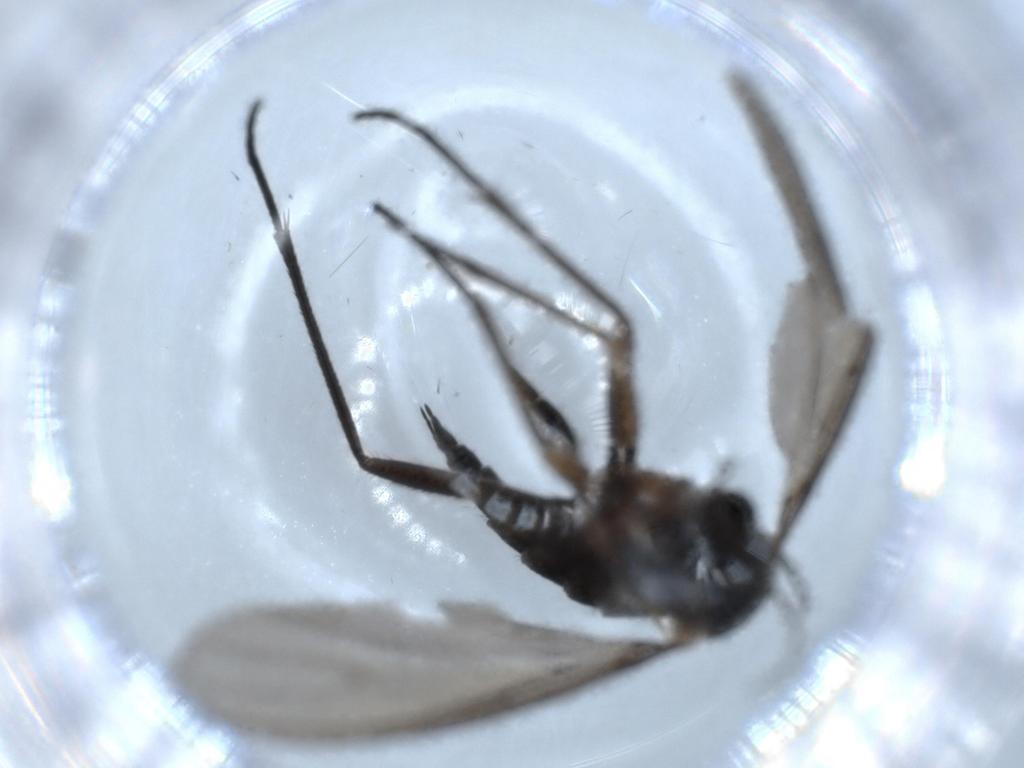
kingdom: Animalia
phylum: Arthropoda
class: Insecta
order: Diptera
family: Sciaridae
